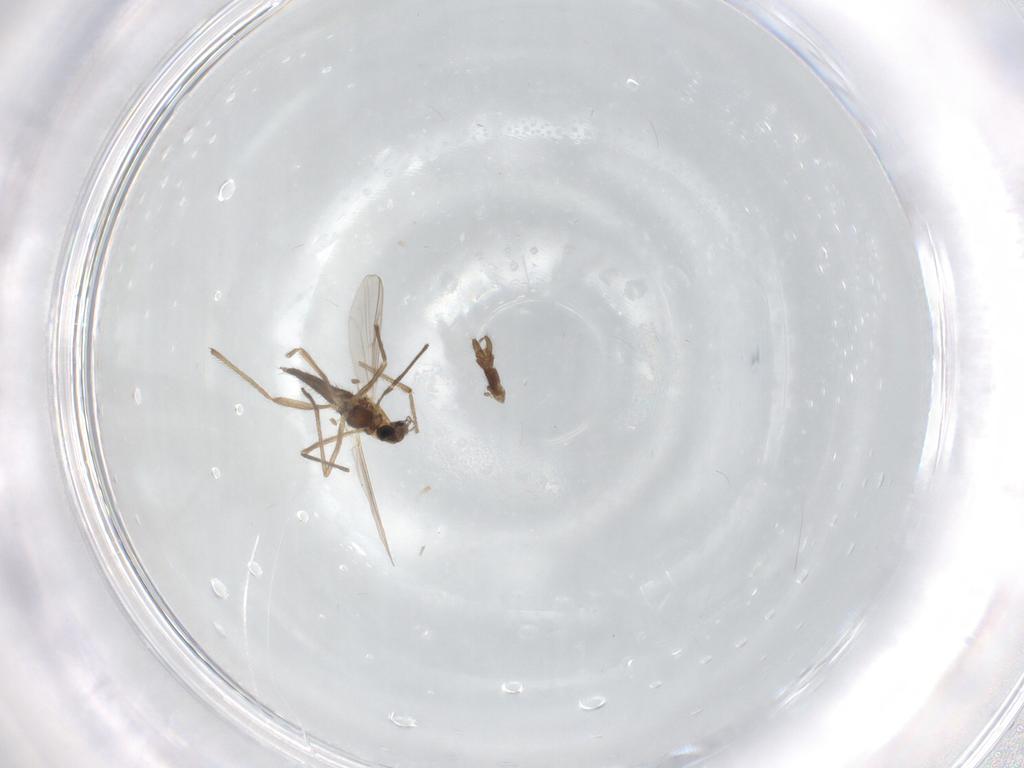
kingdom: Animalia
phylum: Arthropoda
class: Insecta
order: Diptera
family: Chironomidae
